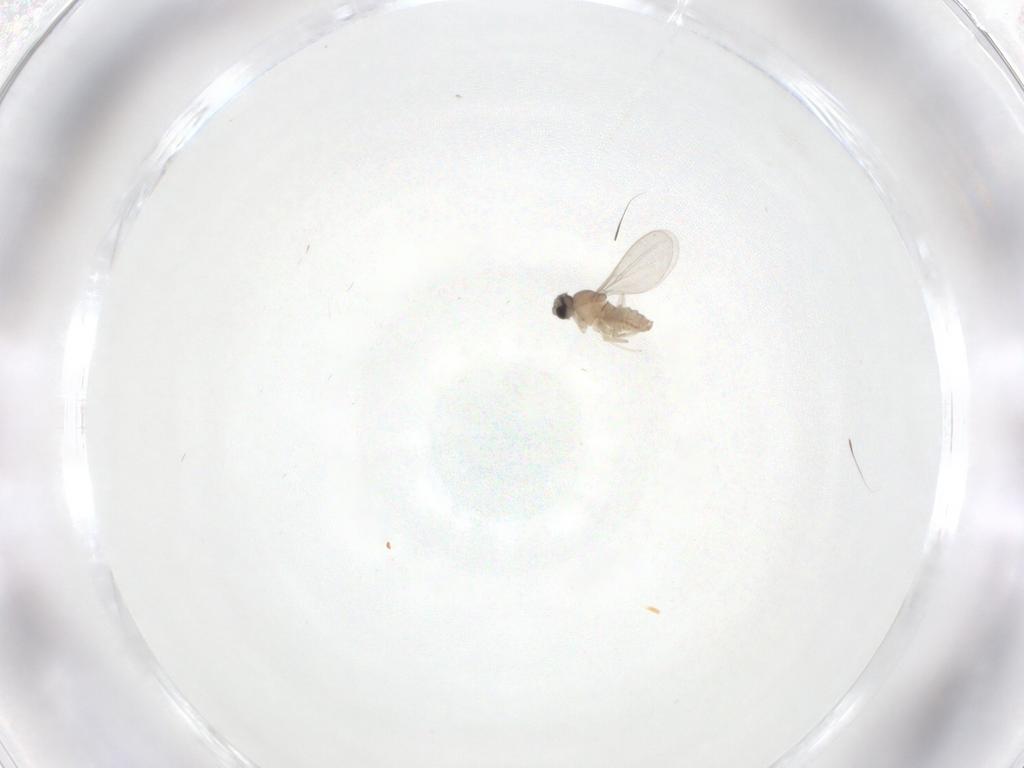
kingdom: Animalia
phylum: Arthropoda
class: Insecta
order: Diptera
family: Cecidomyiidae
